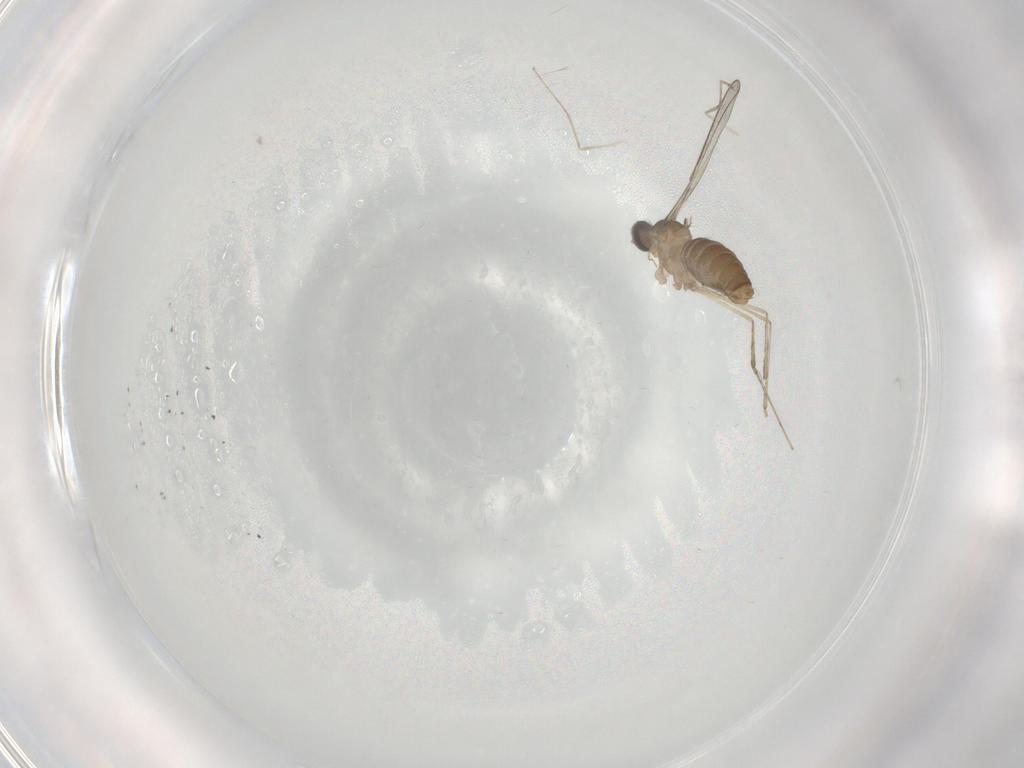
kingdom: Animalia
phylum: Arthropoda
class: Insecta
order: Diptera
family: Cecidomyiidae
